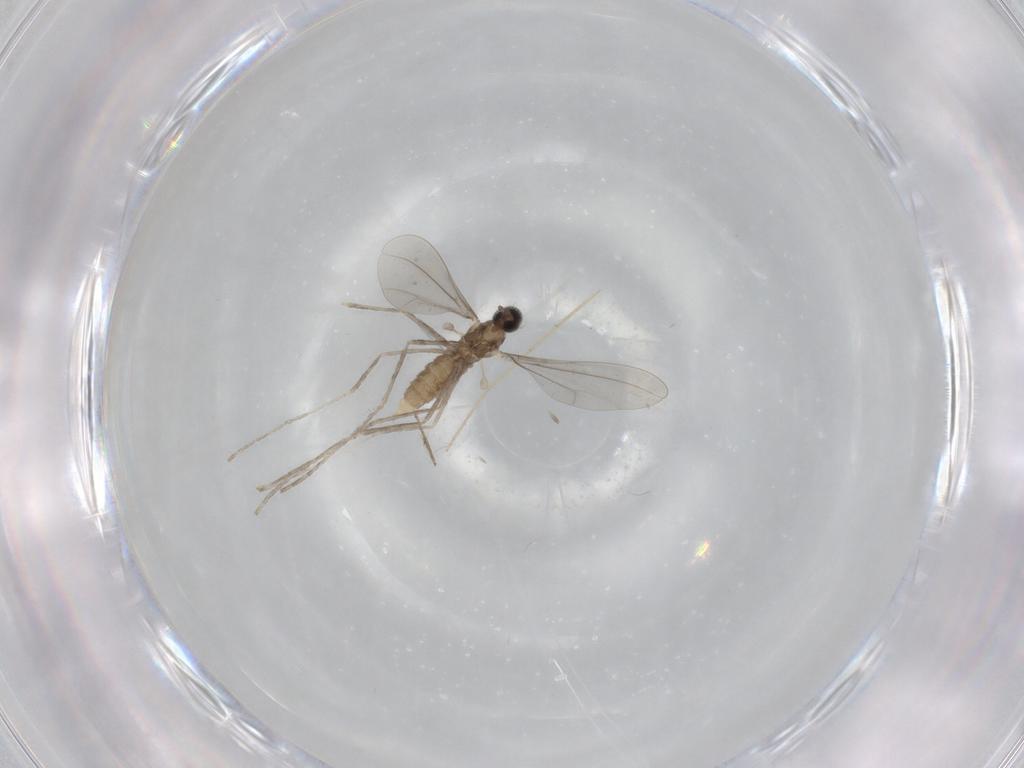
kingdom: Animalia
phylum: Arthropoda
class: Insecta
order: Diptera
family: Cecidomyiidae
